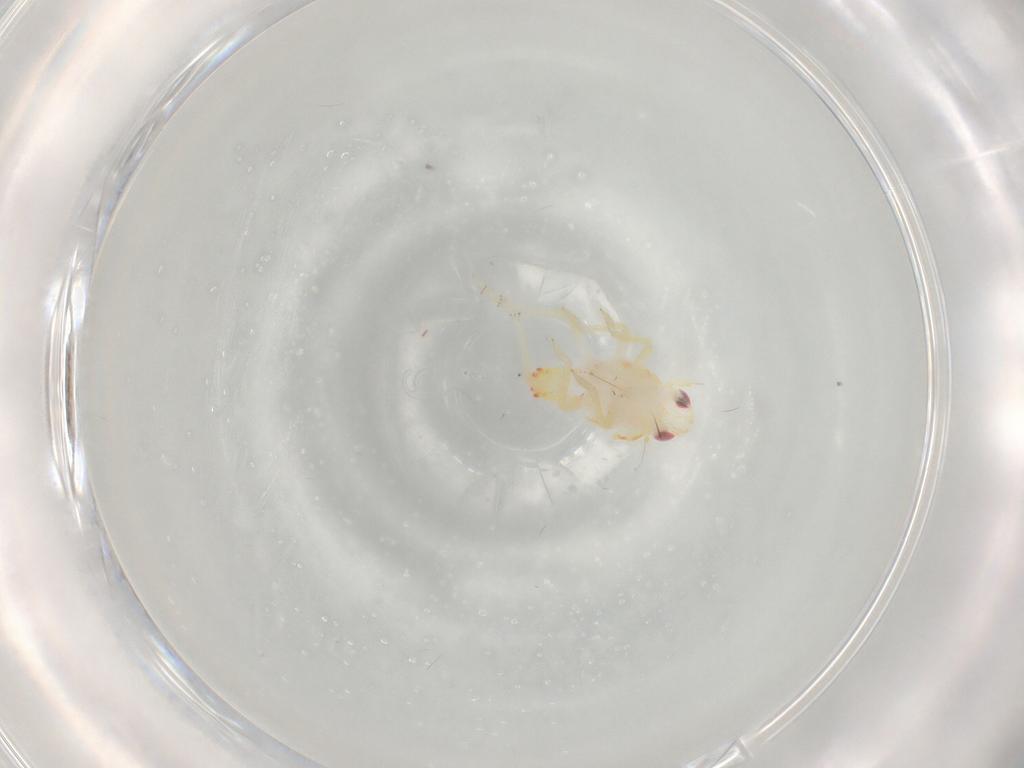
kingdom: Animalia
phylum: Arthropoda
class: Insecta
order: Hemiptera
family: Tropiduchidae
